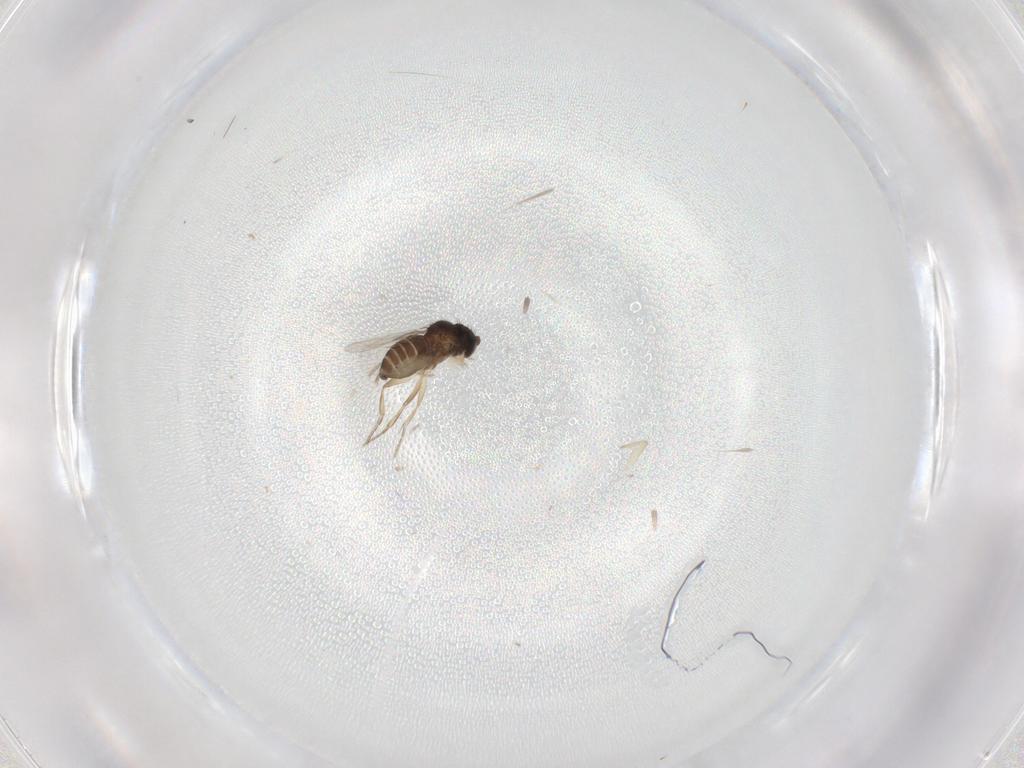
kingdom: Animalia
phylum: Arthropoda
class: Insecta
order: Diptera
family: Phoridae
